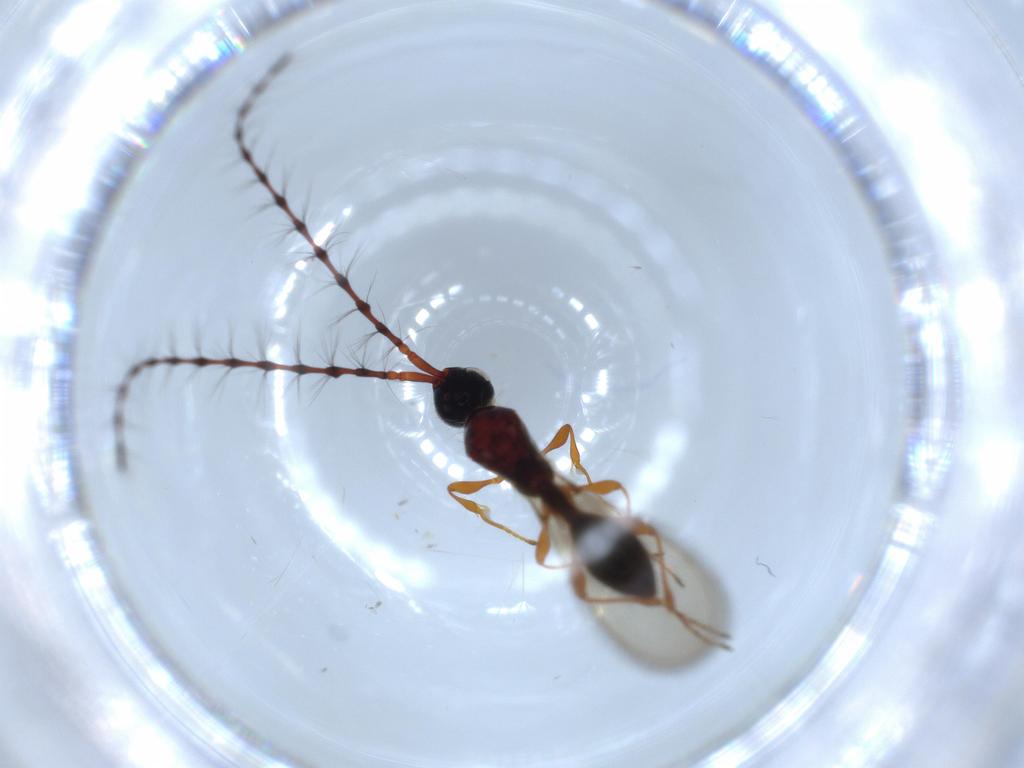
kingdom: Animalia
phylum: Arthropoda
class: Insecta
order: Hymenoptera
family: Diapriidae
